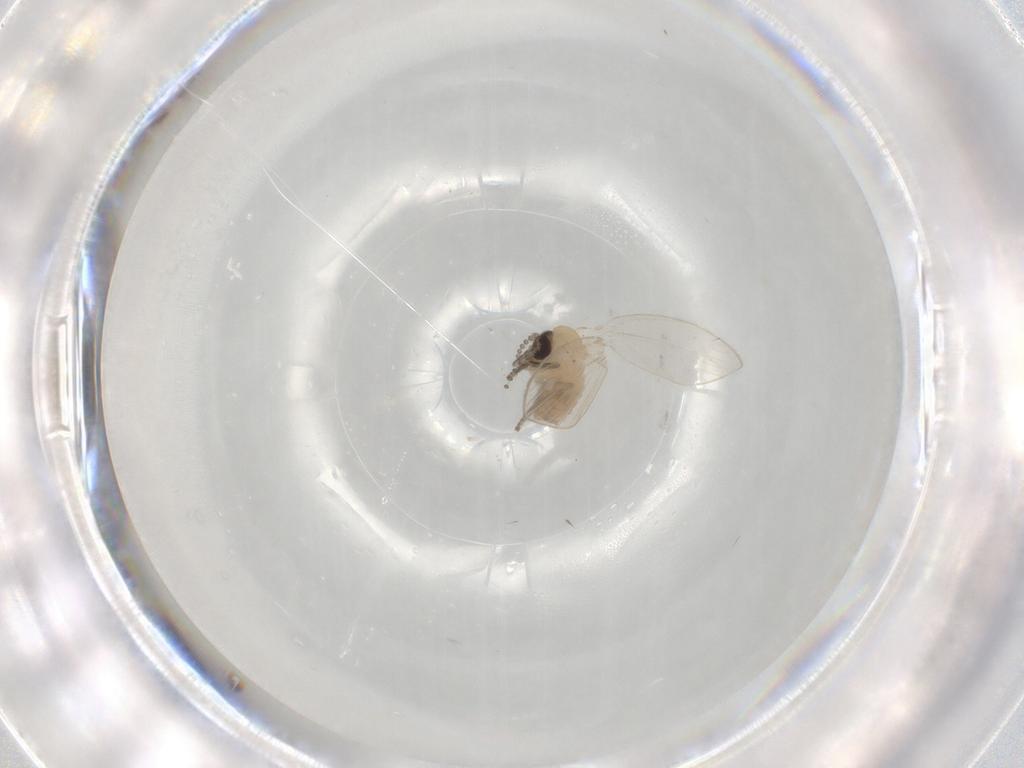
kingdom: Animalia
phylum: Arthropoda
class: Insecta
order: Diptera
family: Psychodidae
